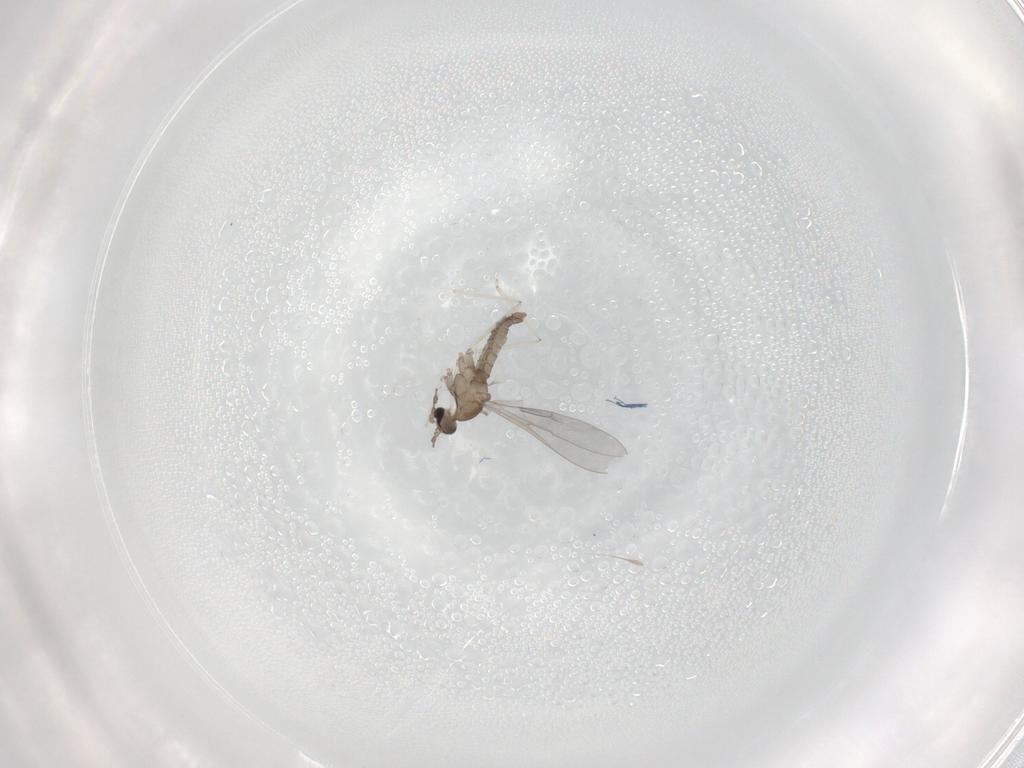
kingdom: Animalia
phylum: Arthropoda
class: Insecta
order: Diptera
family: Cecidomyiidae
